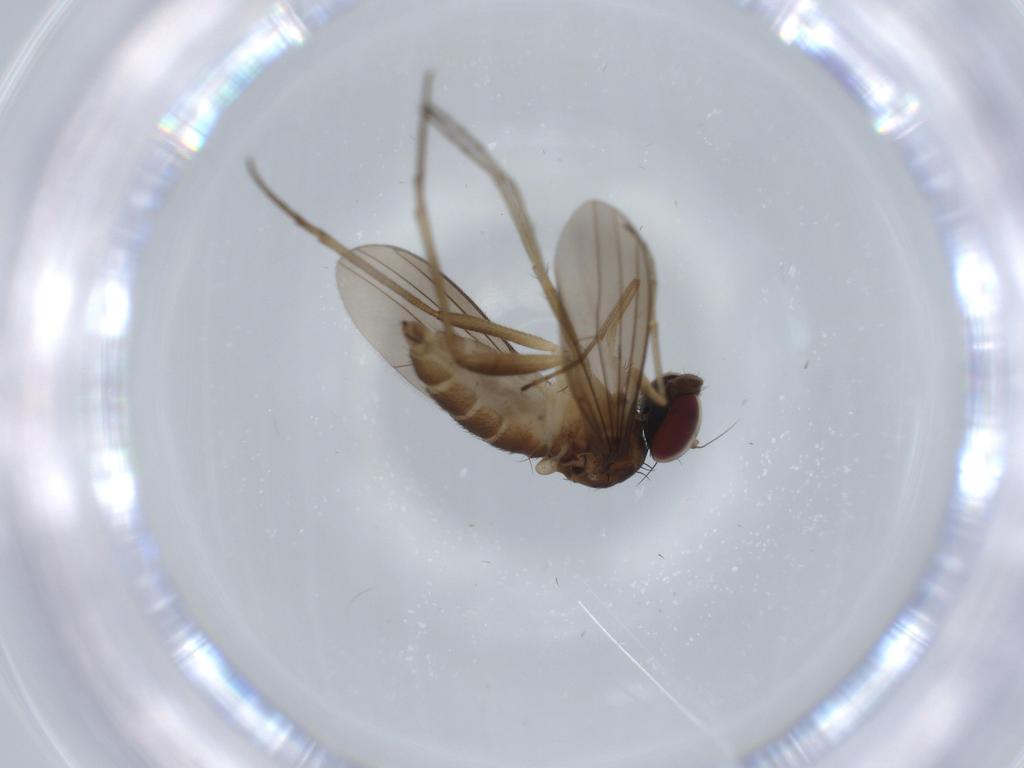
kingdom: Animalia
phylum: Arthropoda
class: Insecta
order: Diptera
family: Dolichopodidae
